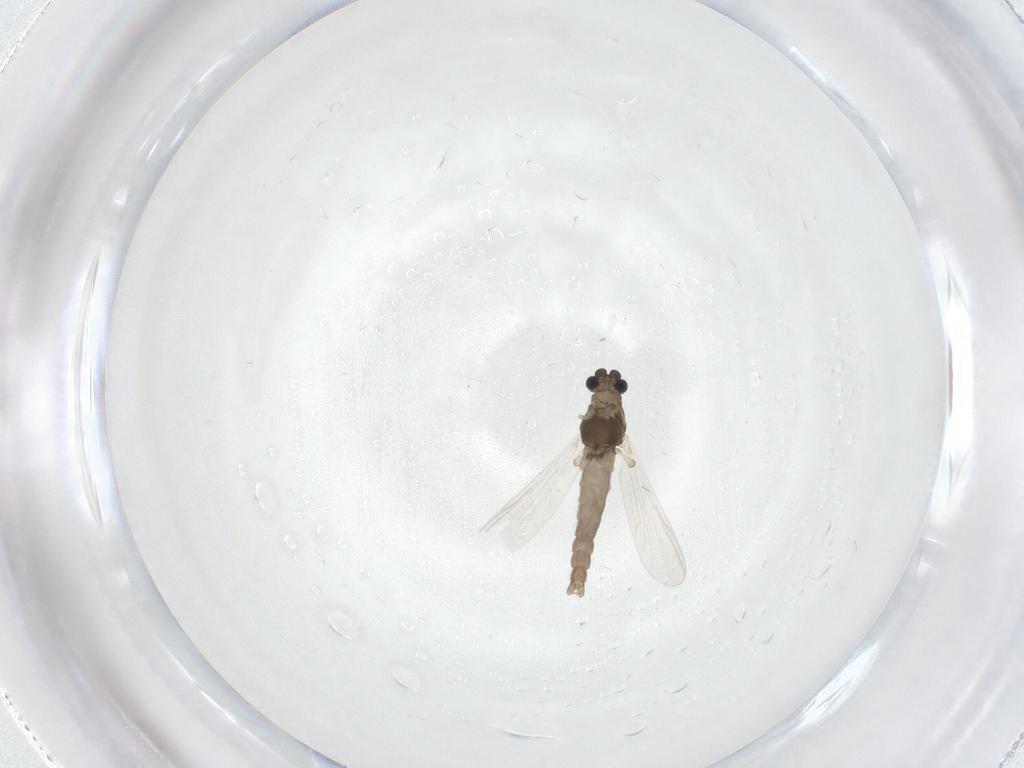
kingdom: Animalia
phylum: Arthropoda
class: Insecta
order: Diptera
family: Chironomidae
